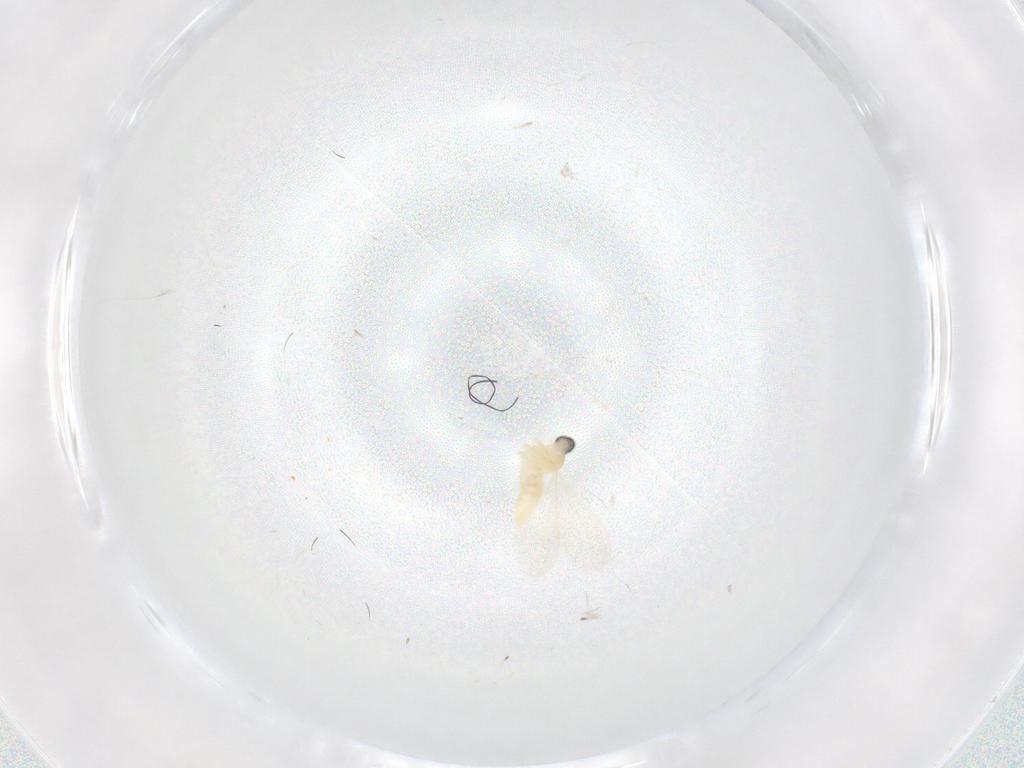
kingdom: Animalia
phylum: Arthropoda
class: Insecta
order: Diptera
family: Cecidomyiidae
